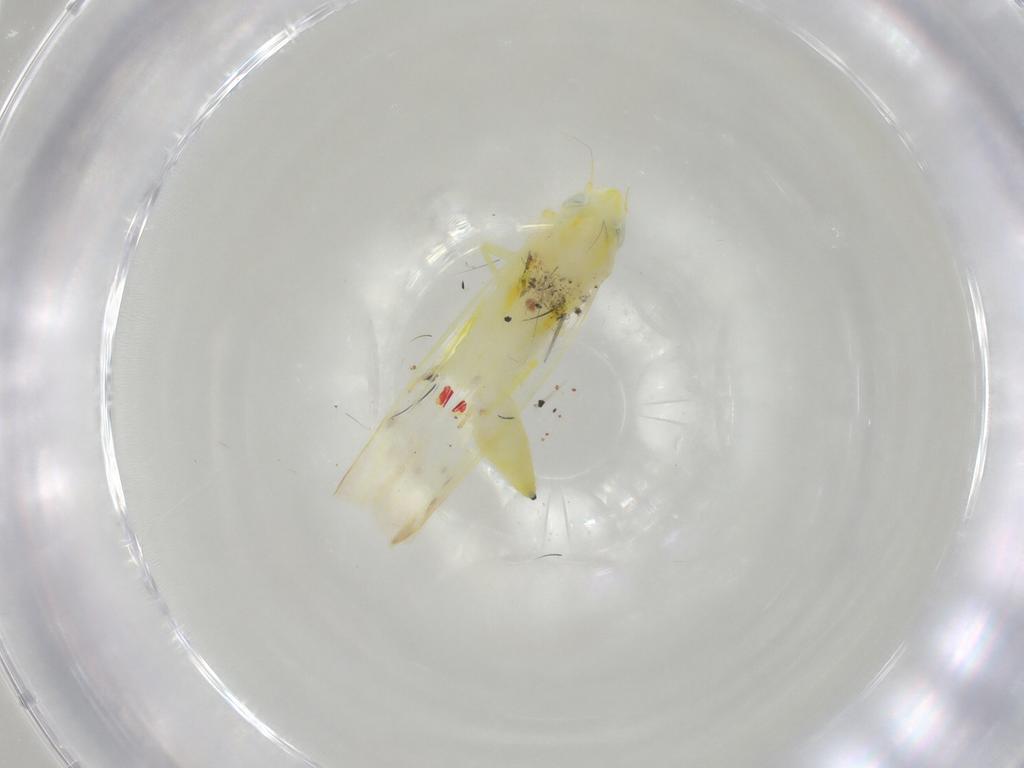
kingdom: Animalia
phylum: Arthropoda
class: Insecta
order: Hemiptera
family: Cicadellidae
